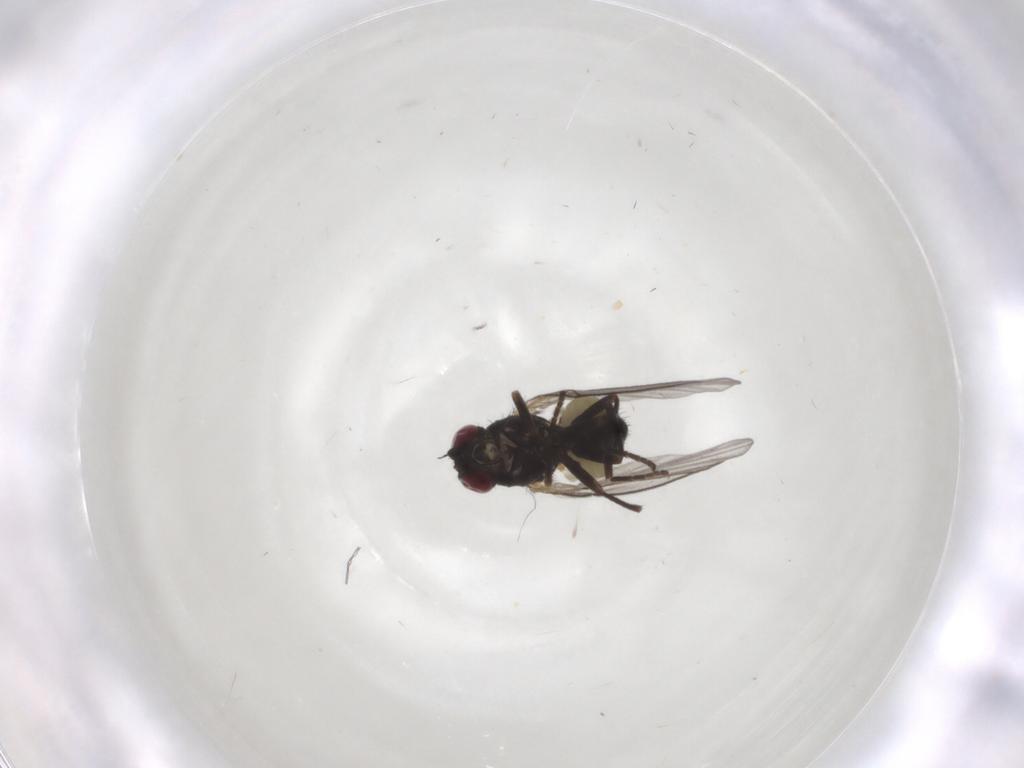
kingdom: Animalia
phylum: Arthropoda
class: Insecta
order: Diptera
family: Agromyzidae
